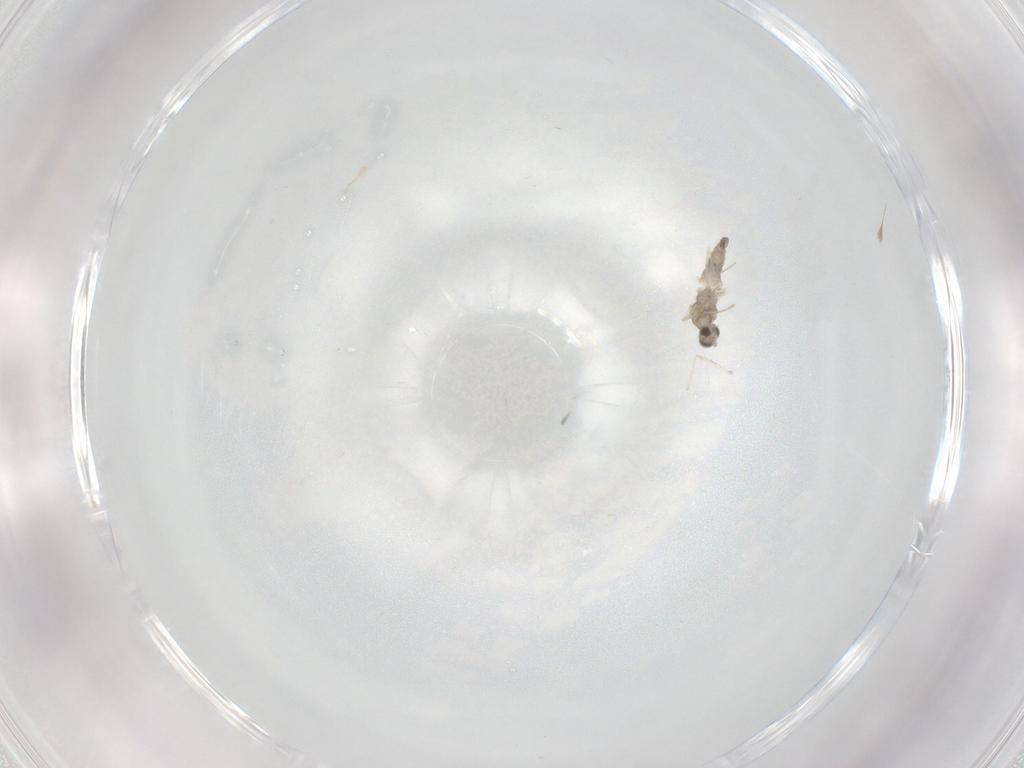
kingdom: Animalia
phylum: Arthropoda
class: Insecta
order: Diptera
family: Cecidomyiidae
